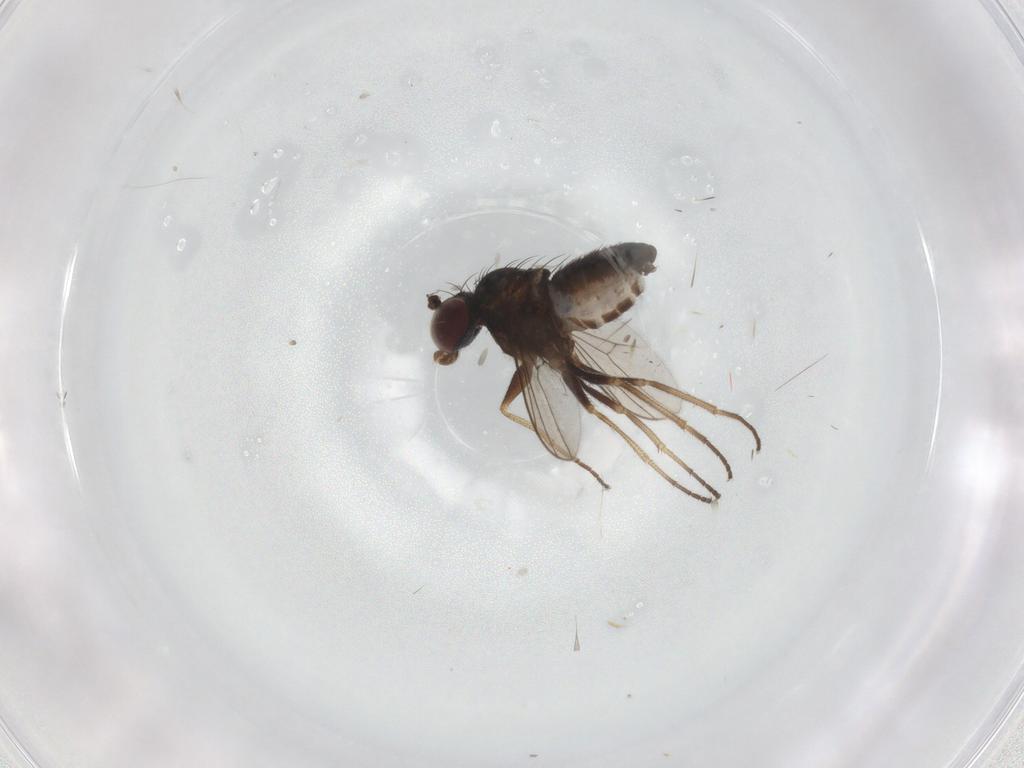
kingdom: Animalia
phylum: Arthropoda
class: Insecta
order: Diptera
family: Dolichopodidae
